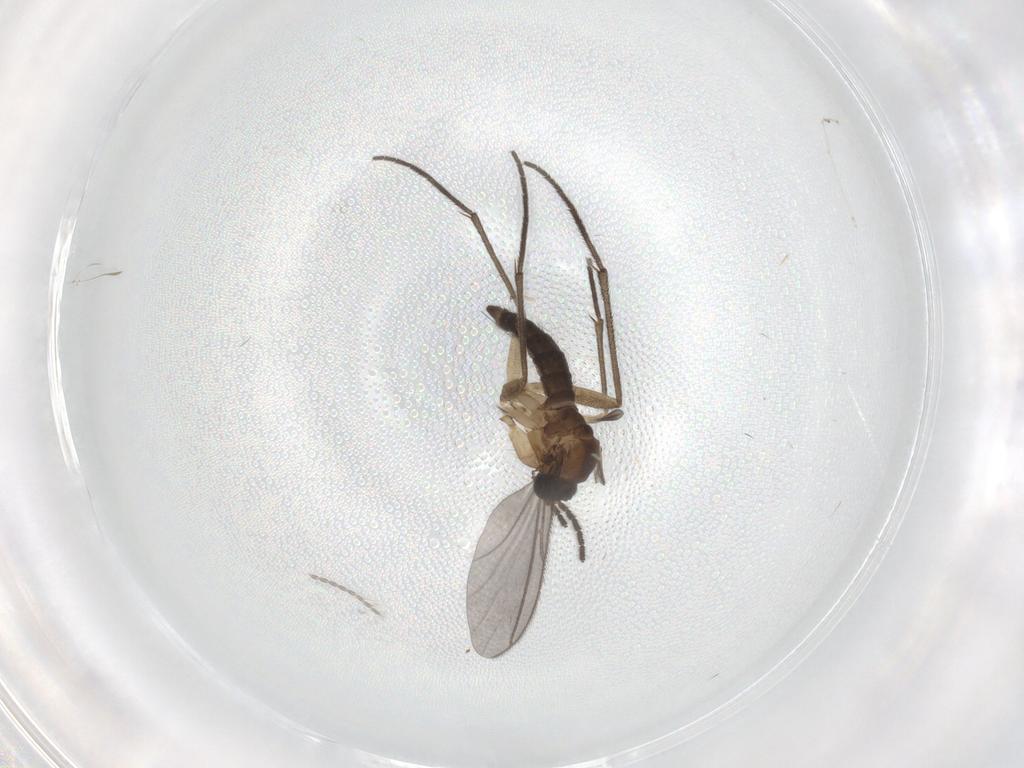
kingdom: Animalia
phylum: Arthropoda
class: Insecta
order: Diptera
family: Sciaridae
